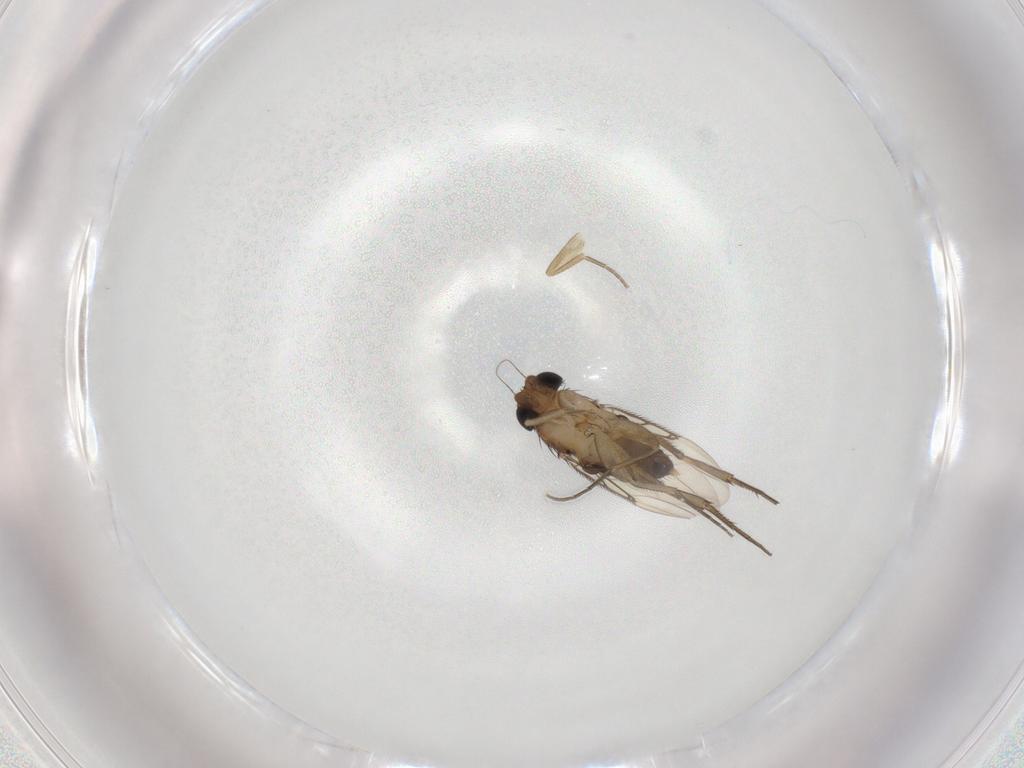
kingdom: Animalia
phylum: Arthropoda
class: Insecta
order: Diptera
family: Phoridae
